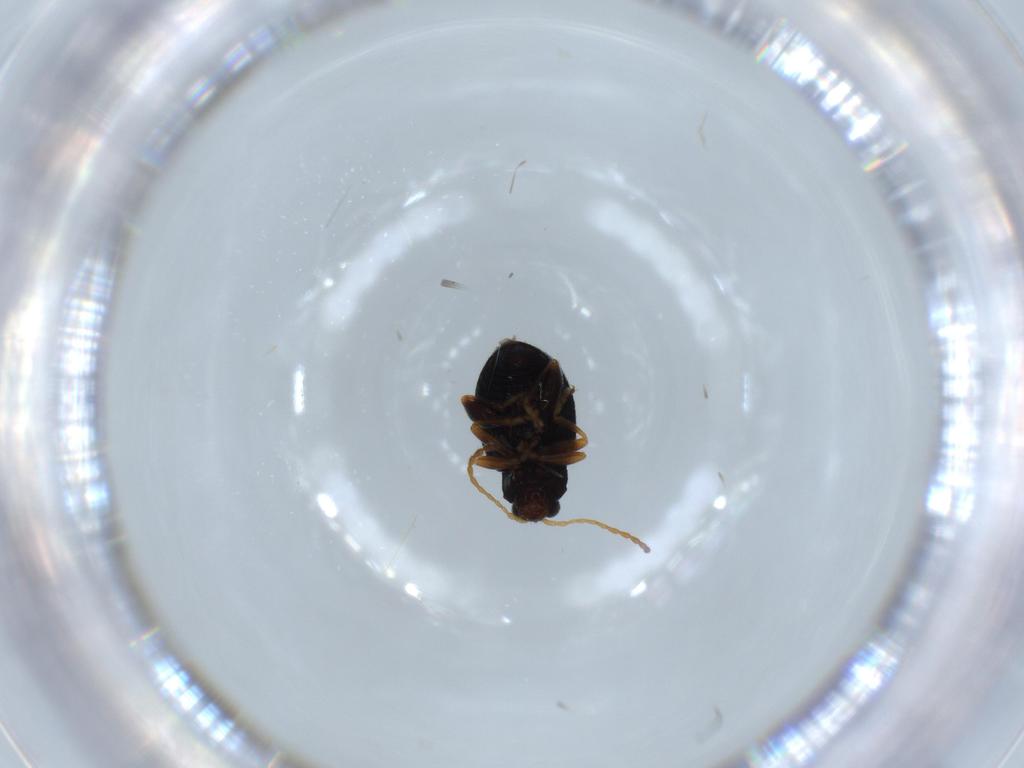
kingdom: Animalia
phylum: Arthropoda
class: Insecta
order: Coleoptera
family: Chrysomelidae
